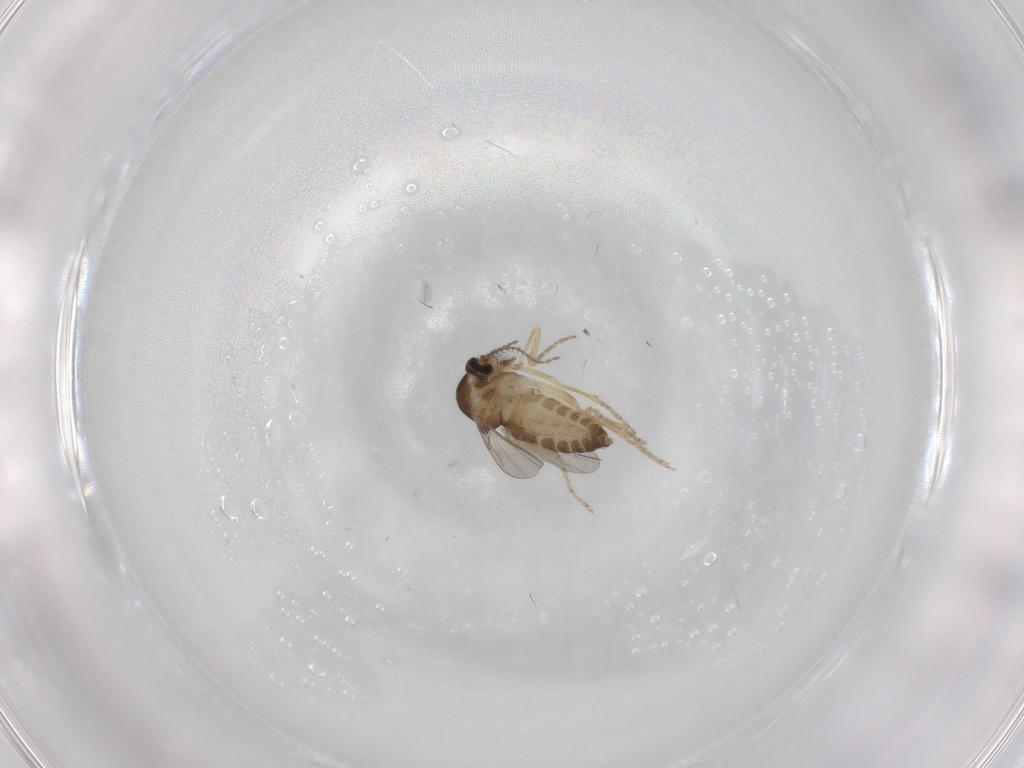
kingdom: Animalia
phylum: Arthropoda
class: Insecta
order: Diptera
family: Ceratopogonidae
